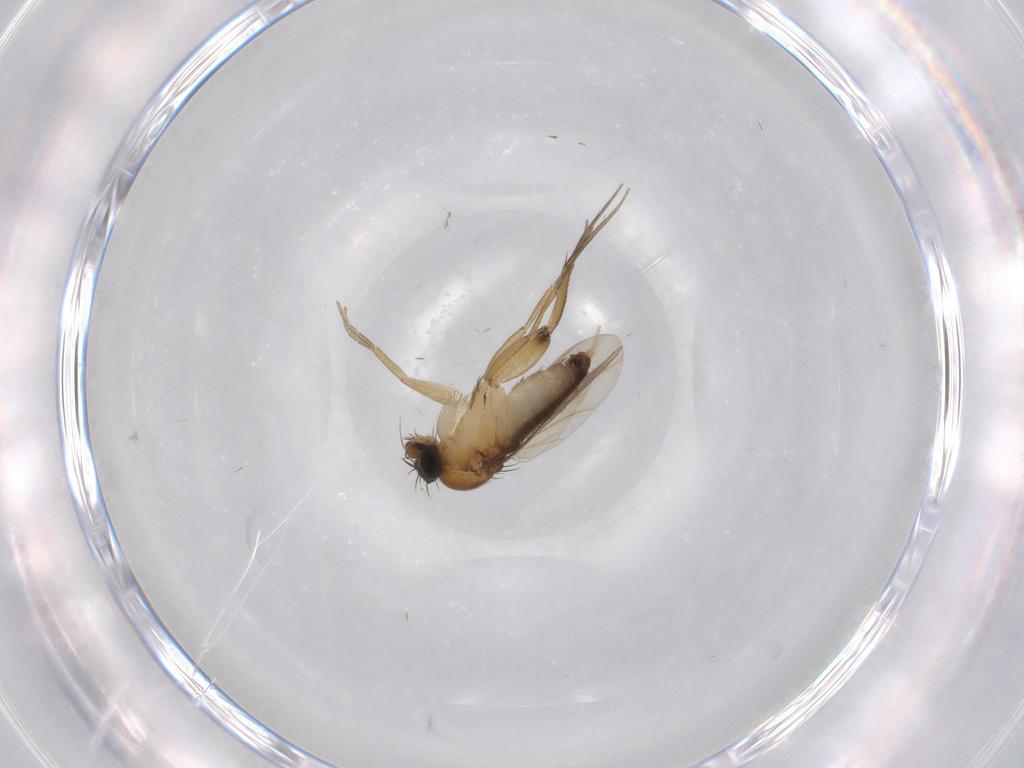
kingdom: Animalia
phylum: Arthropoda
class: Insecta
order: Diptera
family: Phoridae
